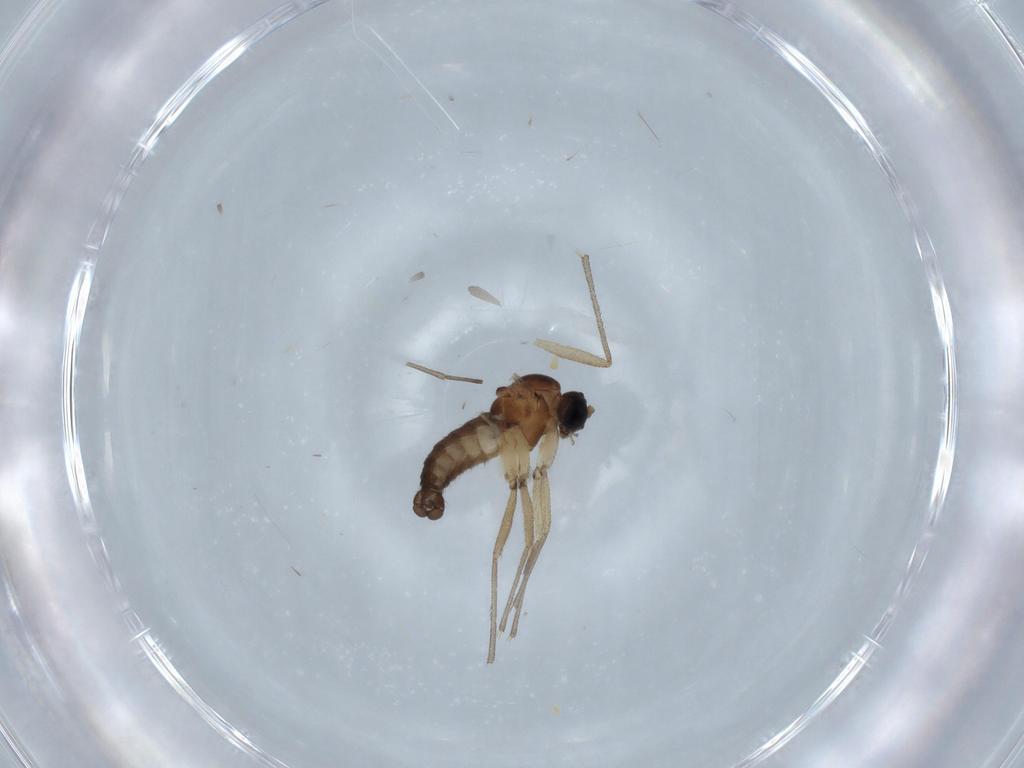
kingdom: Animalia
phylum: Arthropoda
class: Insecta
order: Diptera
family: Sciaridae
